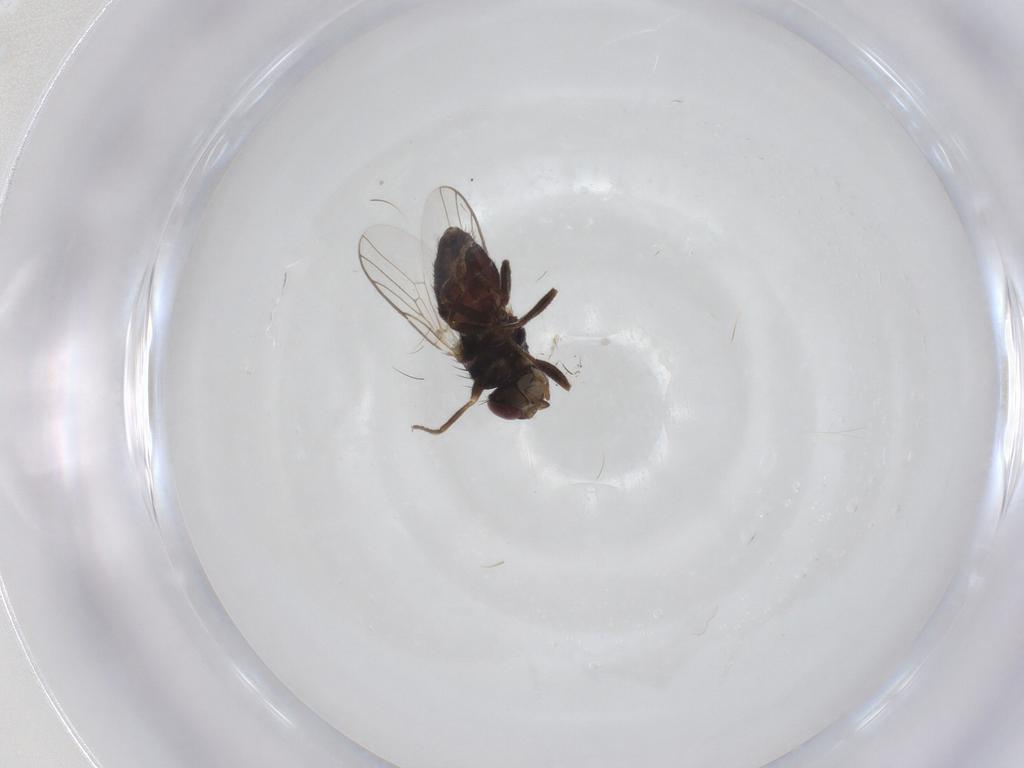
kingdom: Animalia
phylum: Arthropoda
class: Insecta
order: Diptera
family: Chloropidae
